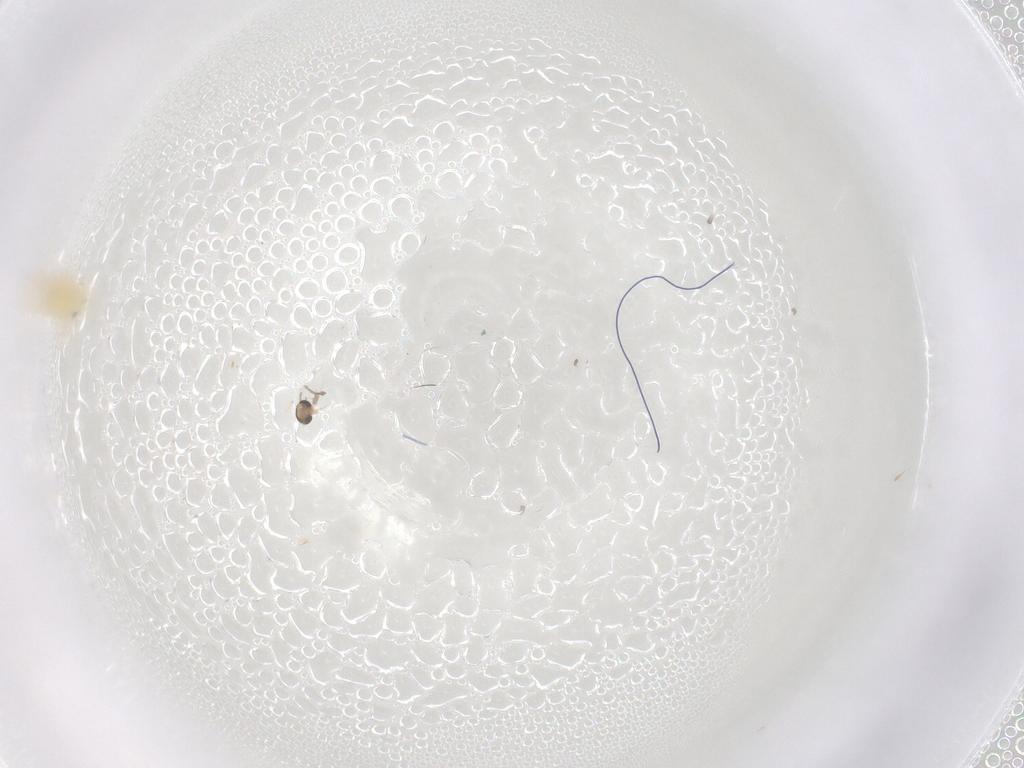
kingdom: Animalia
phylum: Arthropoda
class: Insecta
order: Diptera
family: Chironomidae
